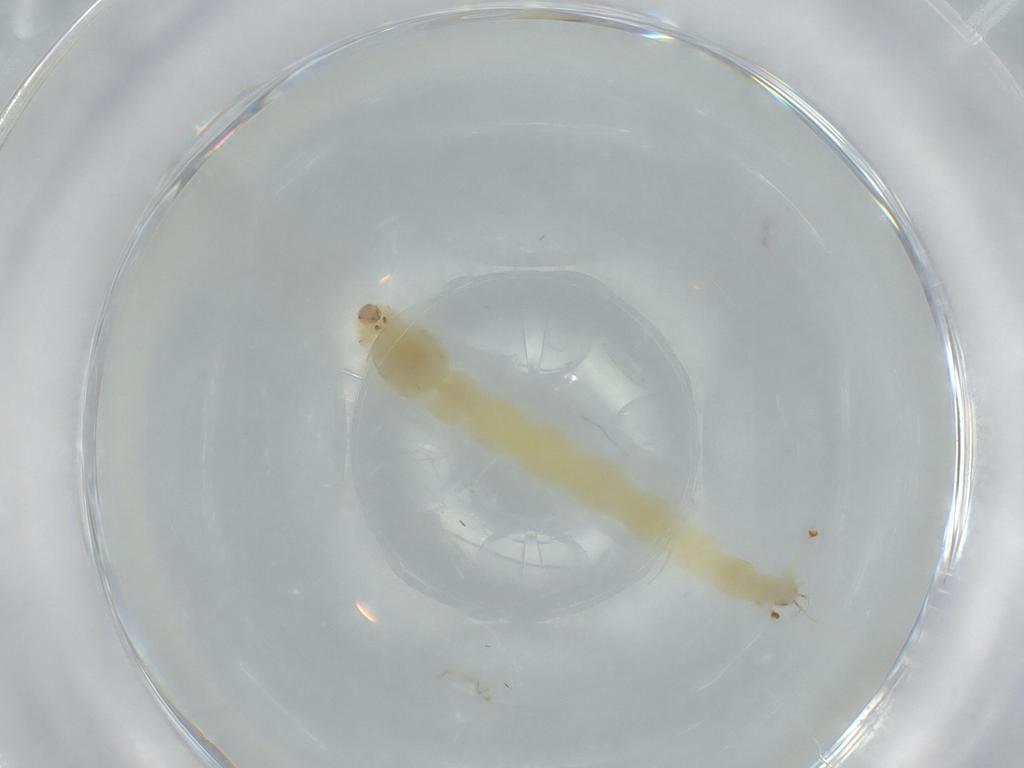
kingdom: Animalia
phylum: Arthropoda
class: Insecta
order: Diptera
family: Chironomidae
